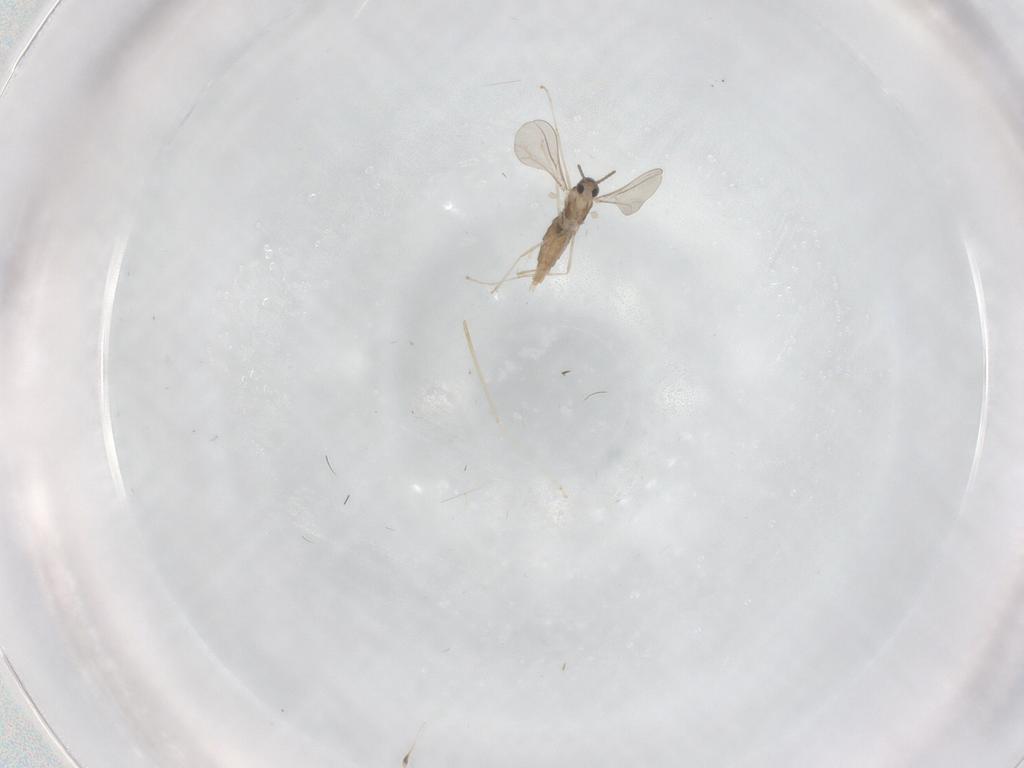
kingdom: Animalia
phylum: Arthropoda
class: Insecta
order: Diptera
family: Cecidomyiidae
